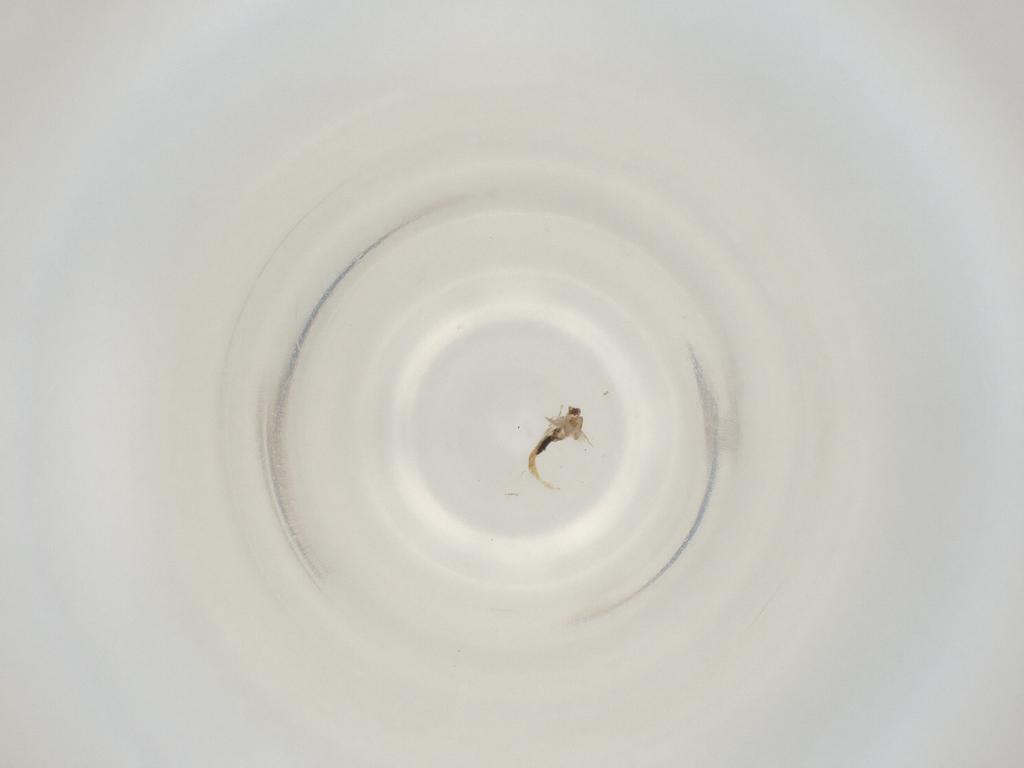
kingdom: Animalia
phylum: Arthropoda
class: Insecta
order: Diptera
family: Cecidomyiidae
